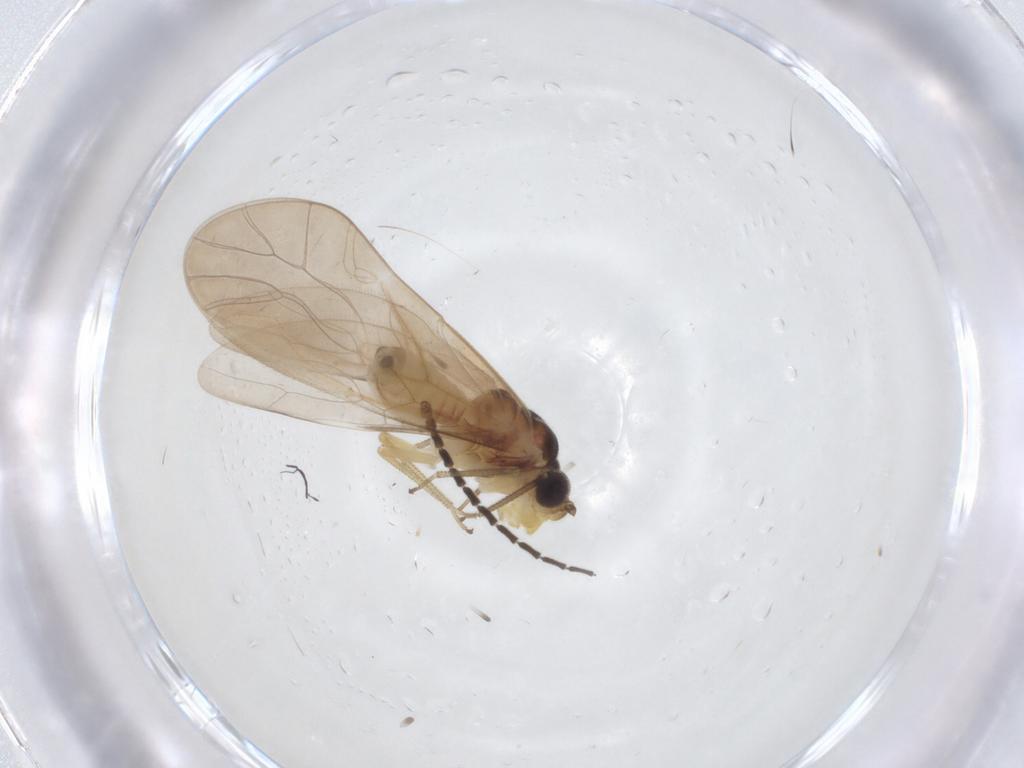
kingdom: Animalia
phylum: Arthropoda
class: Insecta
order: Psocodea
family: Caeciliusidae
